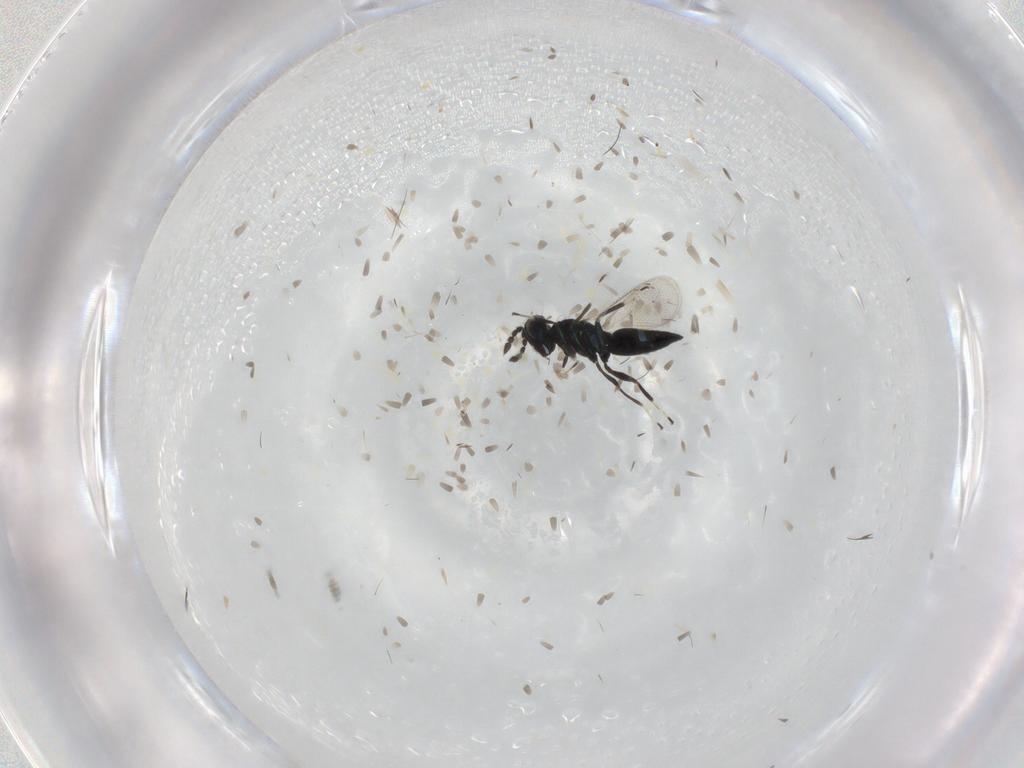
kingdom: Animalia
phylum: Arthropoda
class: Insecta
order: Hymenoptera
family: Eulophidae
